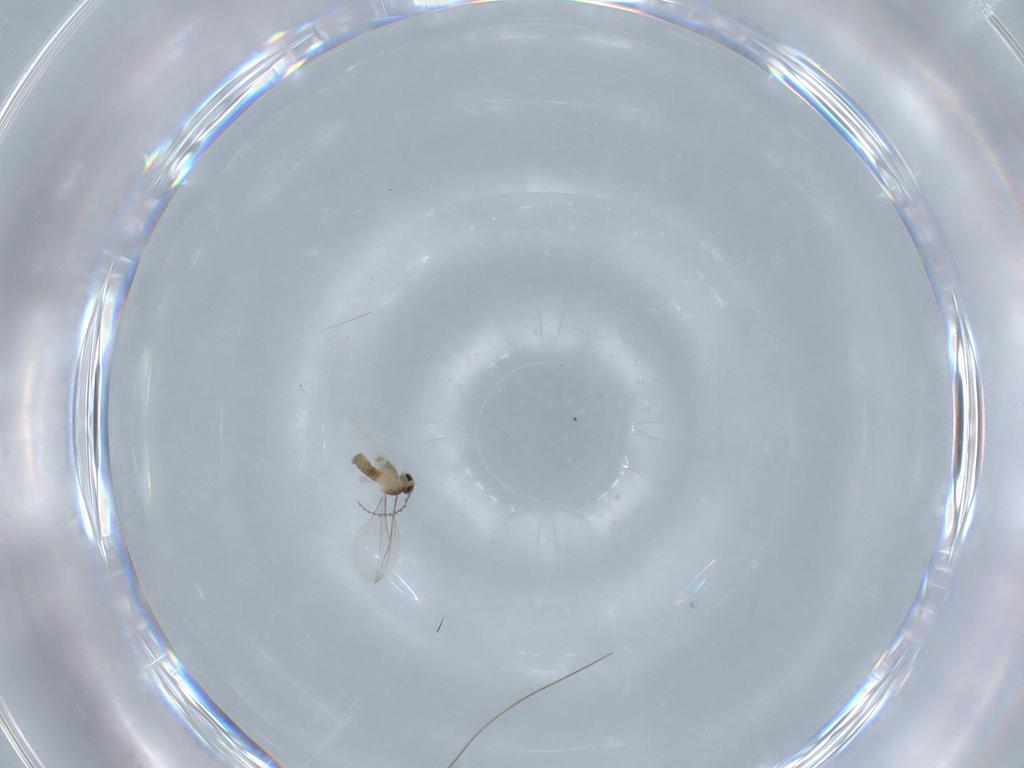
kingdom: Animalia
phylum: Arthropoda
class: Insecta
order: Diptera
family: Cecidomyiidae
